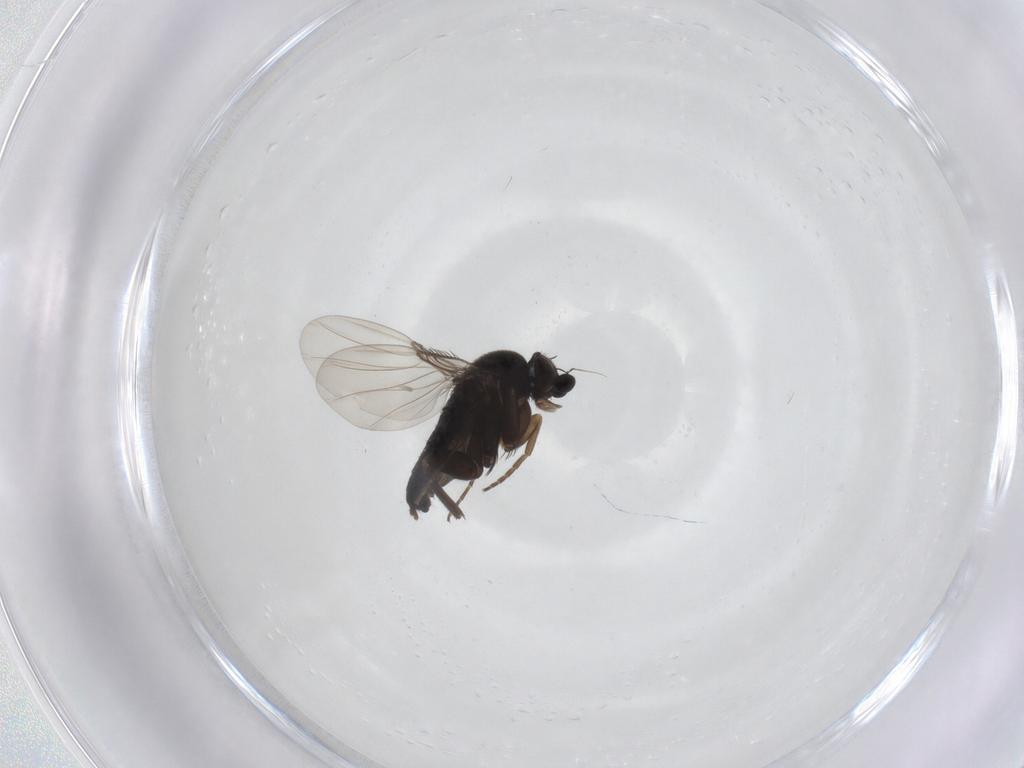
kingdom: Animalia
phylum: Arthropoda
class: Insecta
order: Diptera
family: Phoridae
